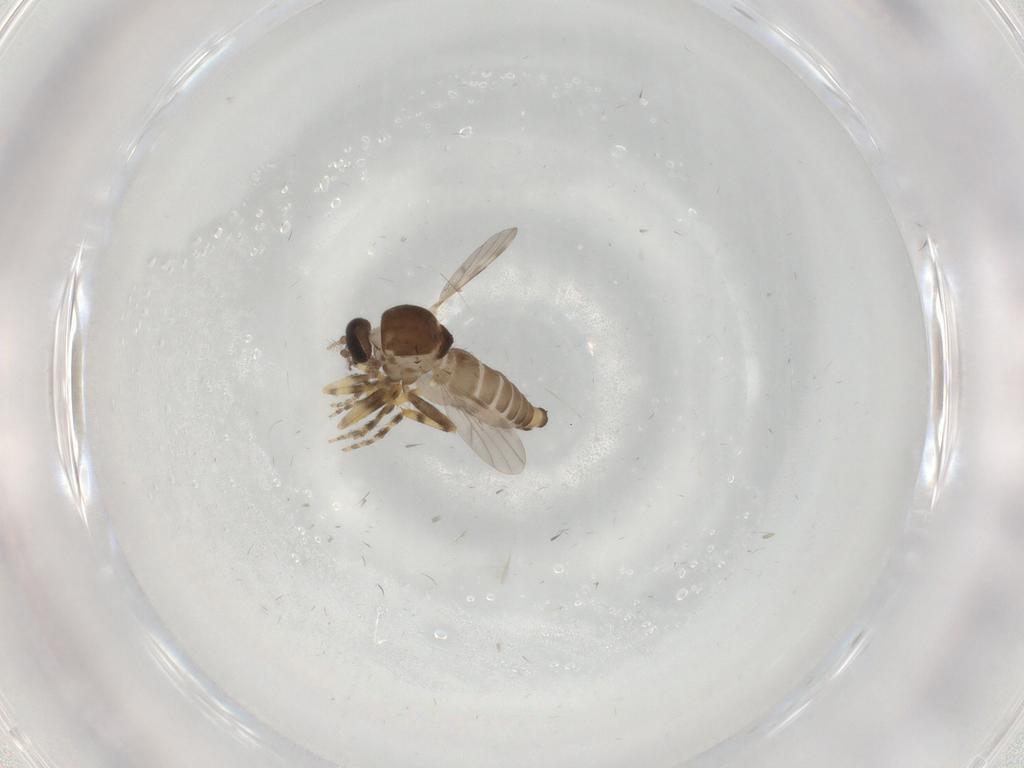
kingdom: Animalia
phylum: Arthropoda
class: Insecta
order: Diptera
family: Ceratopogonidae
